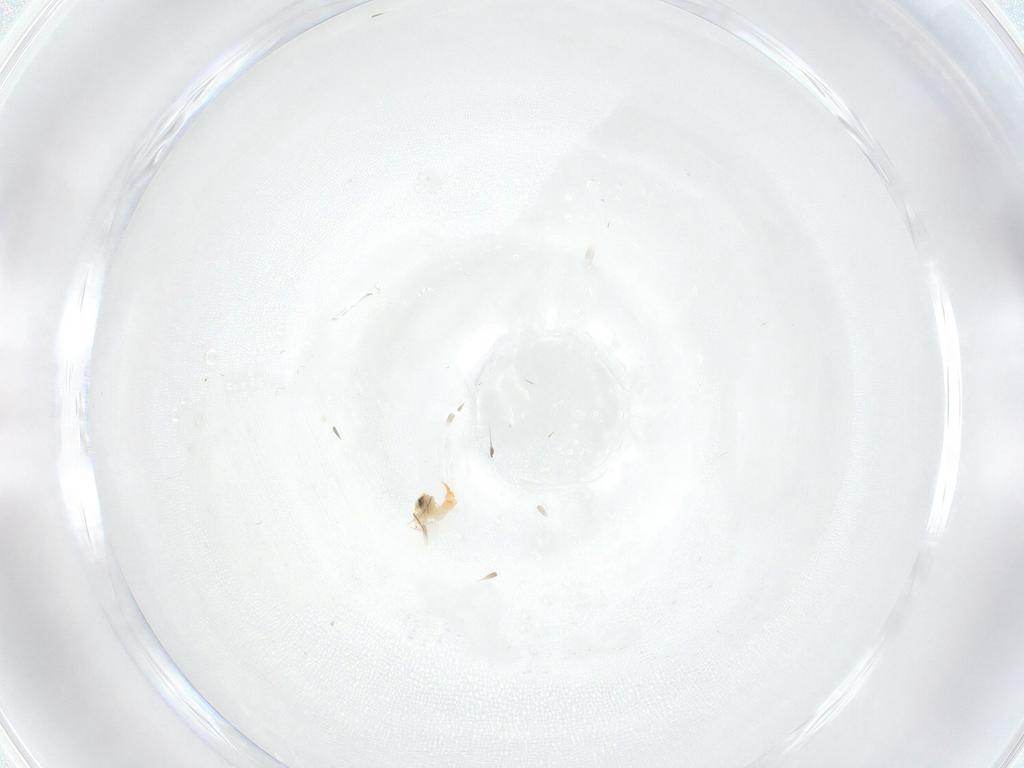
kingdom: Animalia
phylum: Arthropoda
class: Insecta
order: Hemiptera
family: Aleyrodidae
